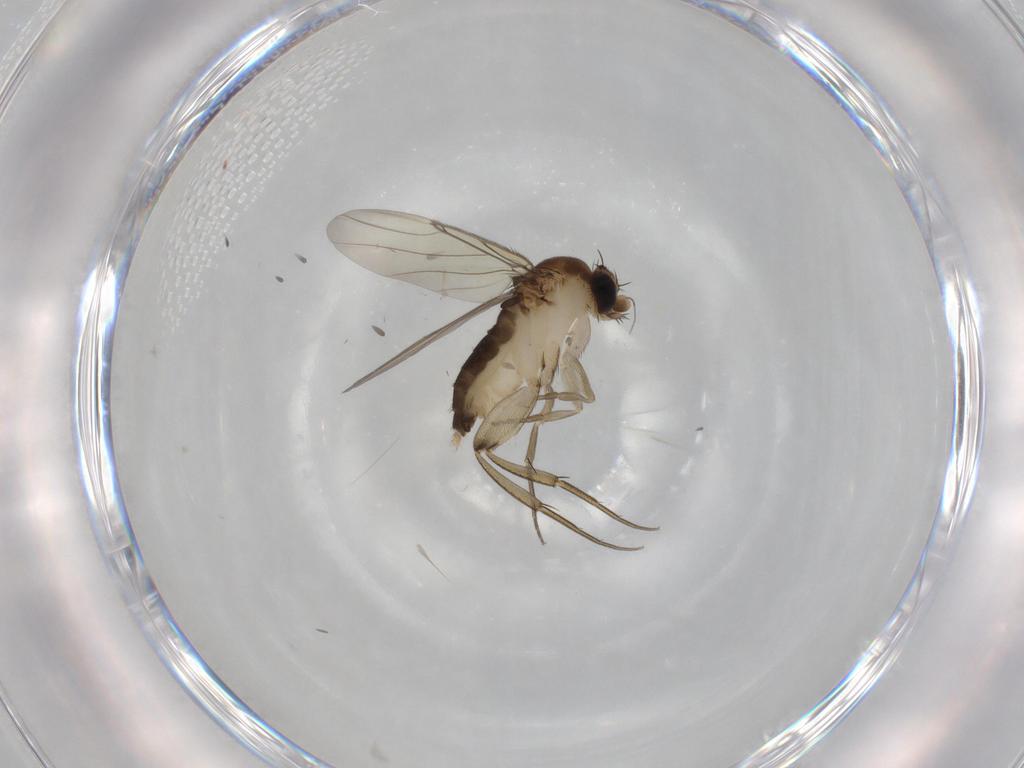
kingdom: Animalia
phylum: Arthropoda
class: Insecta
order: Diptera
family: Phoridae
